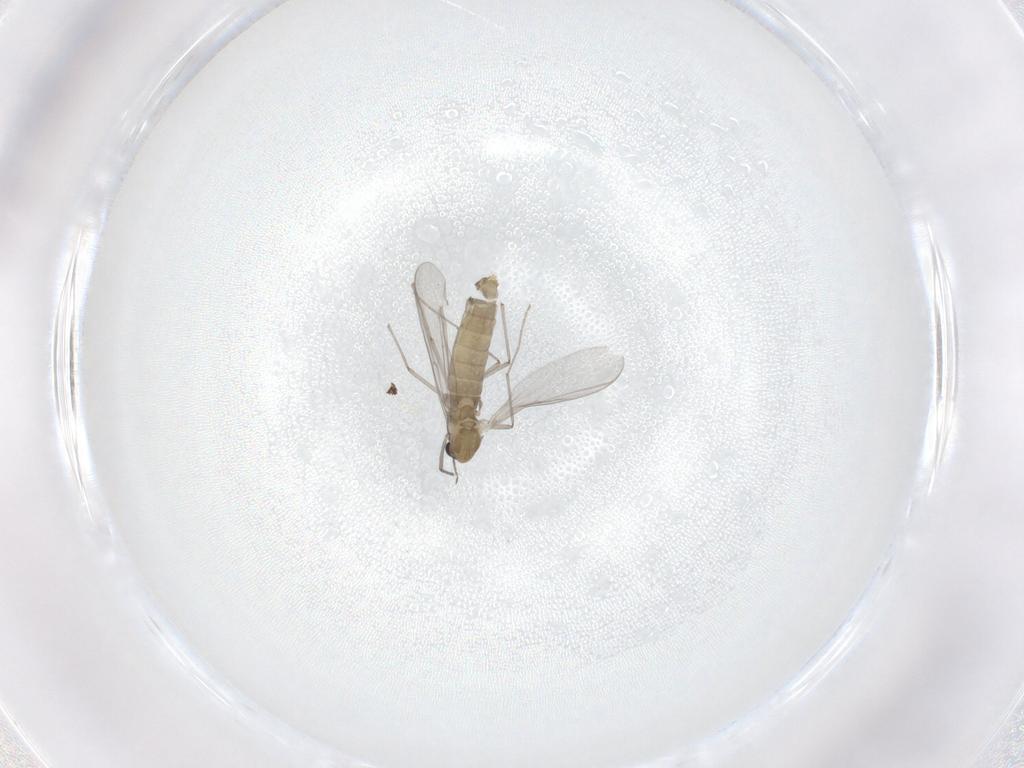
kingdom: Animalia
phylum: Arthropoda
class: Insecta
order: Diptera
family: Chironomidae
